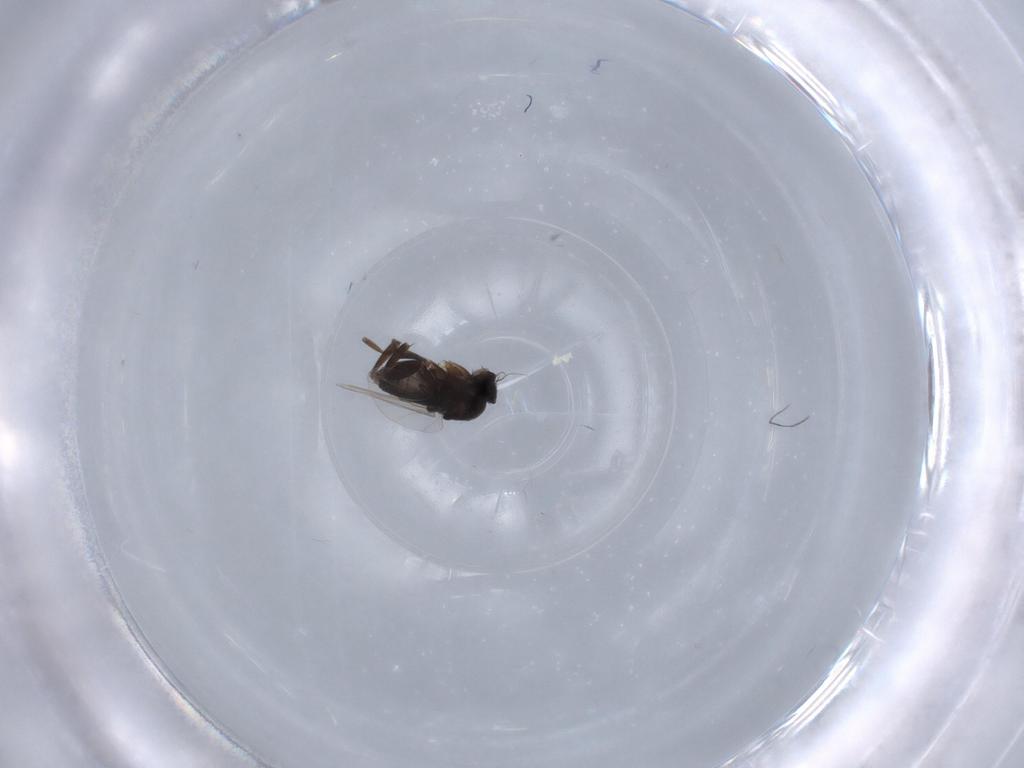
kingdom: Animalia
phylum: Arthropoda
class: Insecta
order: Diptera
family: Phoridae
